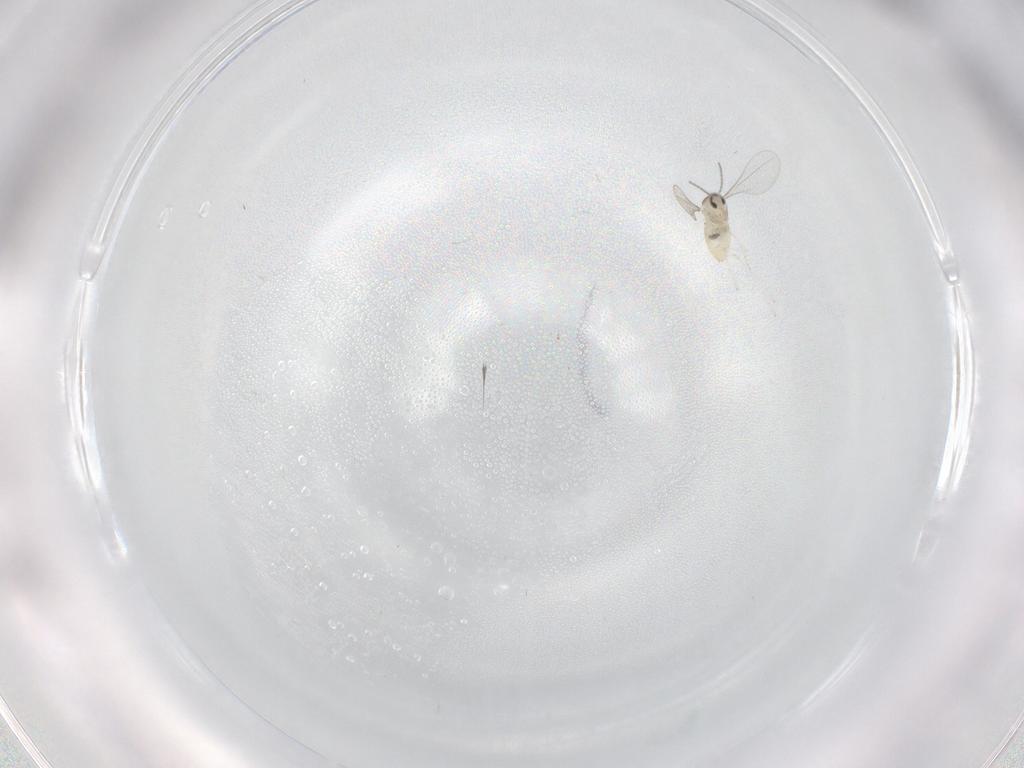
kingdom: Animalia
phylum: Arthropoda
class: Insecta
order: Diptera
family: Cecidomyiidae
